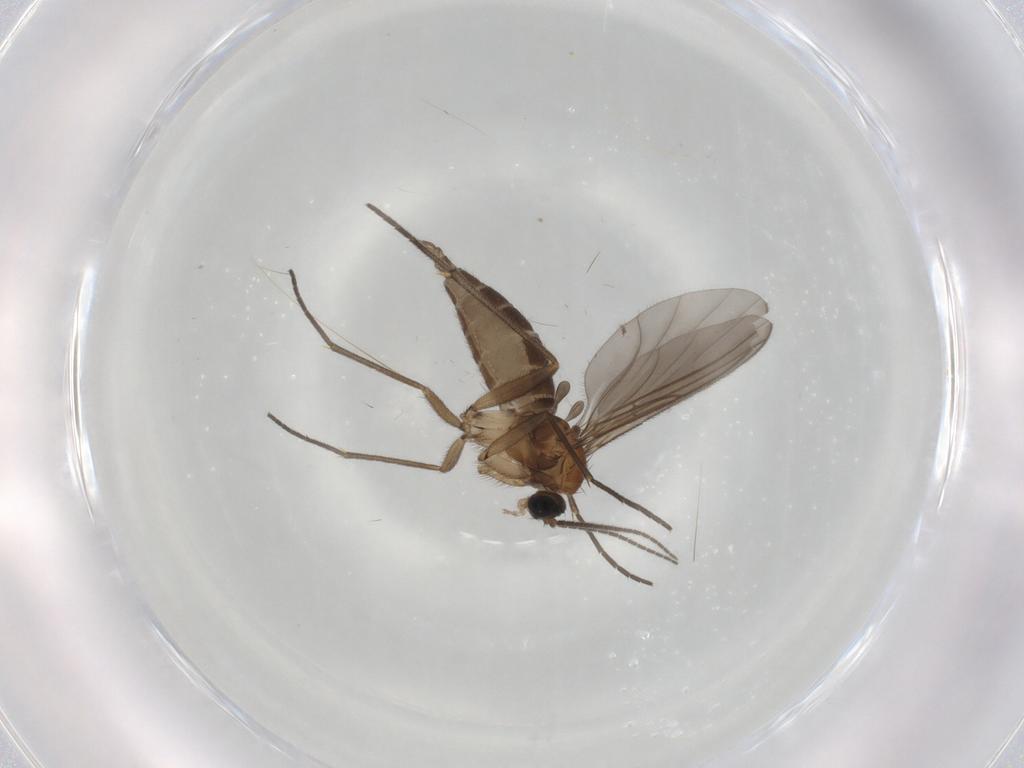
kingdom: Animalia
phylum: Arthropoda
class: Insecta
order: Diptera
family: Sciaridae
